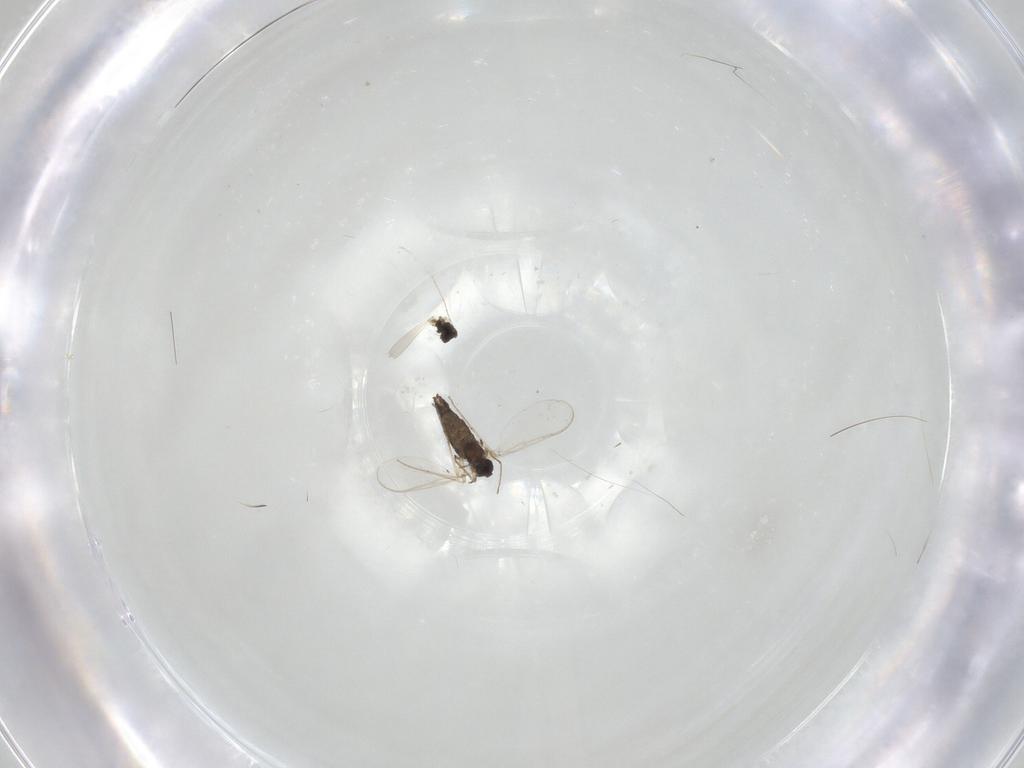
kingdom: Animalia
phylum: Arthropoda
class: Insecta
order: Diptera
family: Cecidomyiidae
